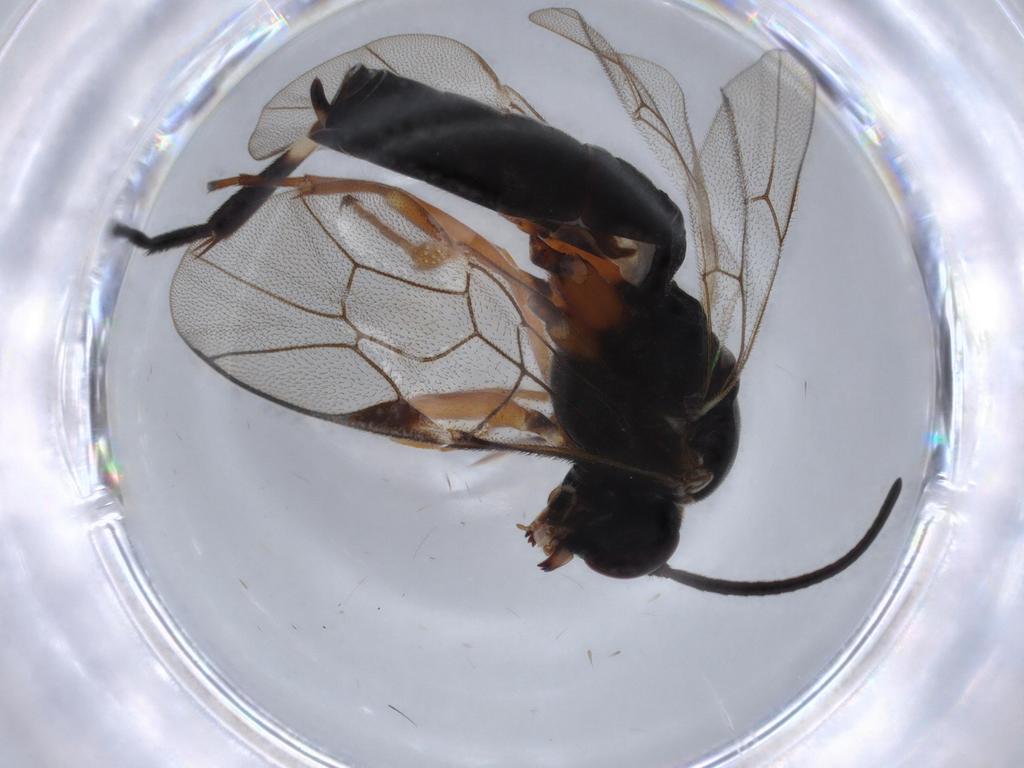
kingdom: Animalia
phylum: Arthropoda
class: Insecta
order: Hymenoptera
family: Ichneumonidae
